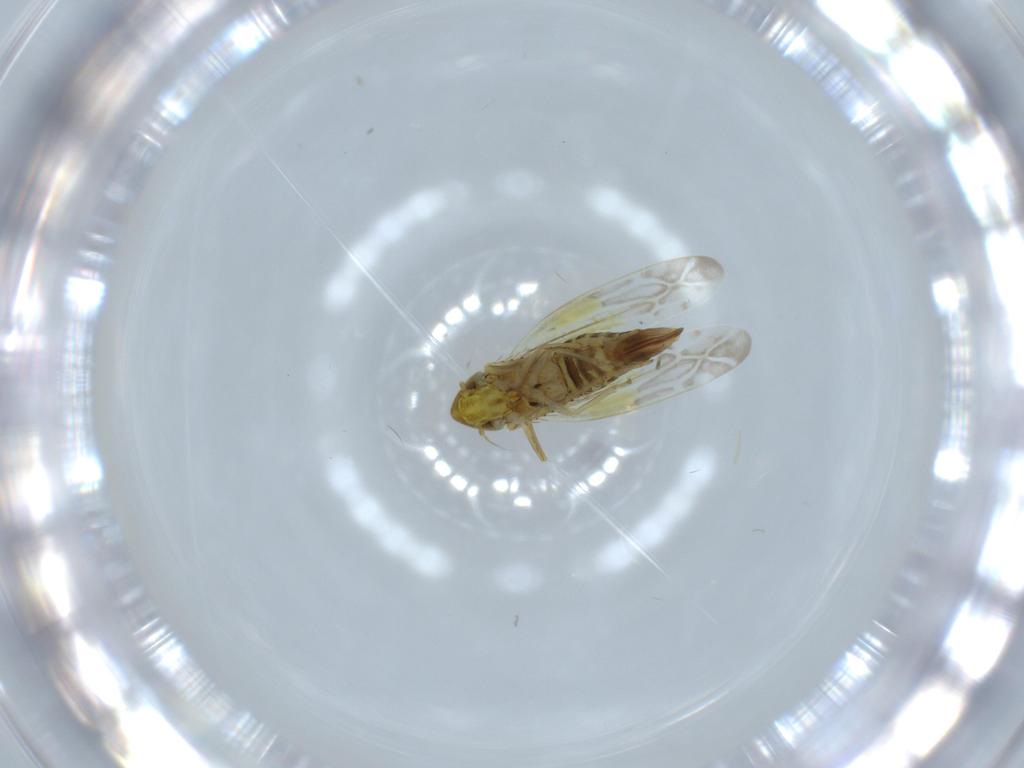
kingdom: Animalia
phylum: Arthropoda
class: Insecta
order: Hemiptera
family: Cicadellidae
